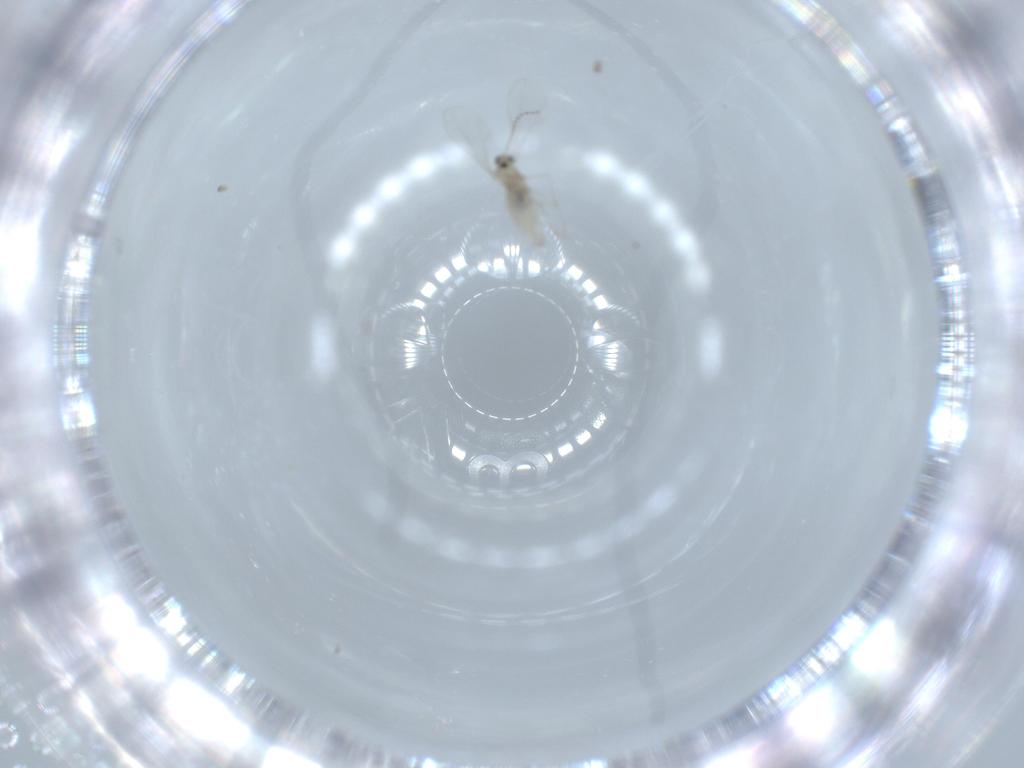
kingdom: Animalia
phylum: Arthropoda
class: Insecta
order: Diptera
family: Cecidomyiidae
